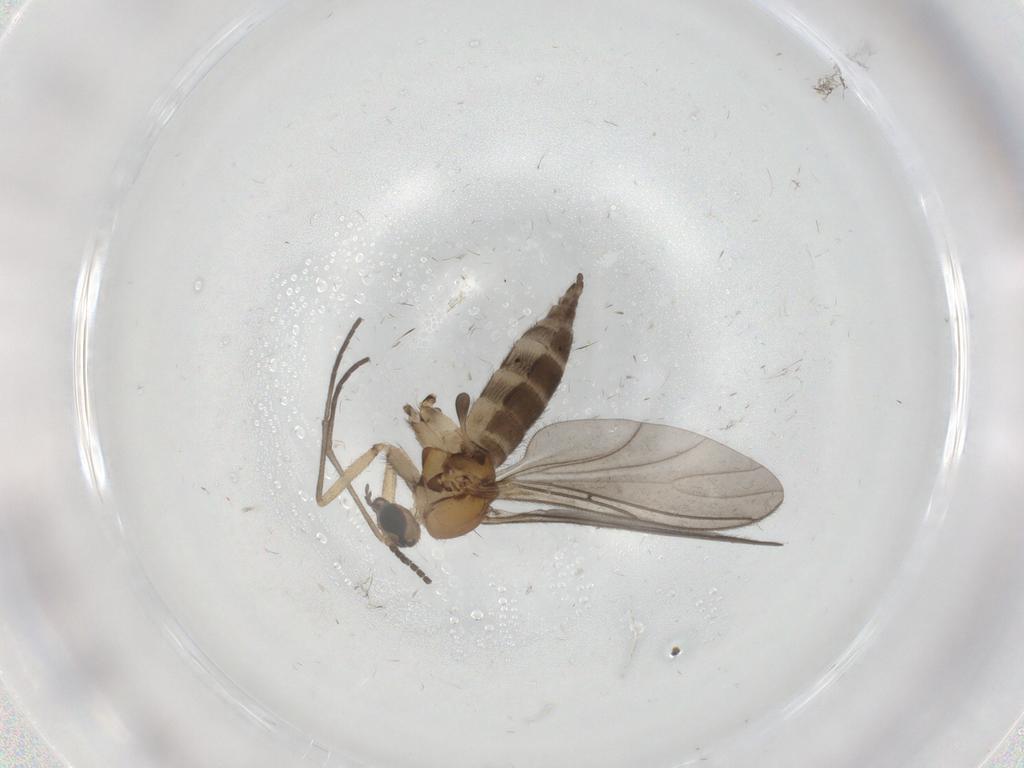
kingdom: Animalia
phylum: Arthropoda
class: Insecta
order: Diptera
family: Sciaridae
